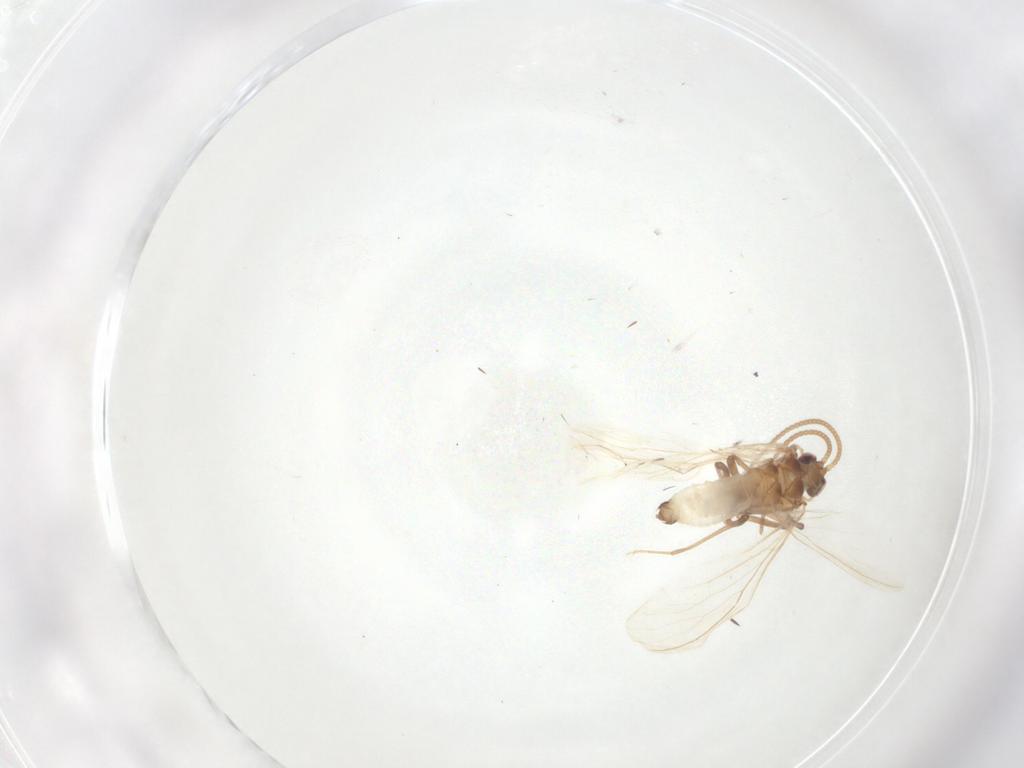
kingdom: Animalia
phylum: Arthropoda
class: Insecta
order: Neuroptera
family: Coniopterygidae
